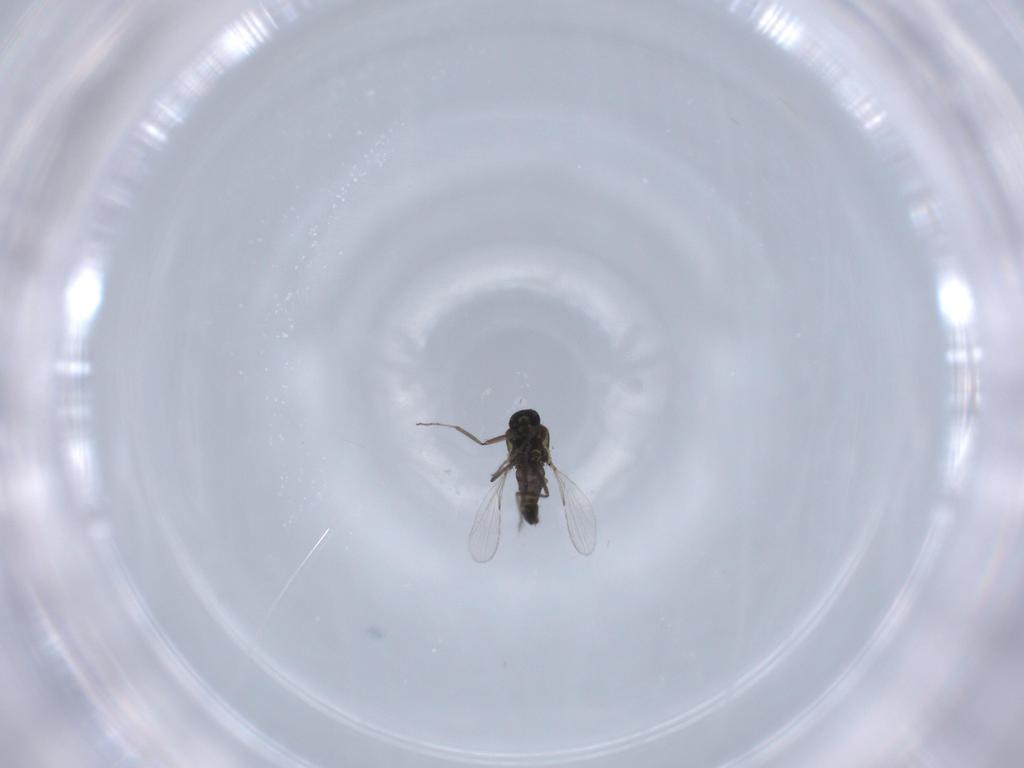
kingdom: Animalia
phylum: Arthropoda
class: Insecta
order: Diptera
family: Ceratopogonidae
